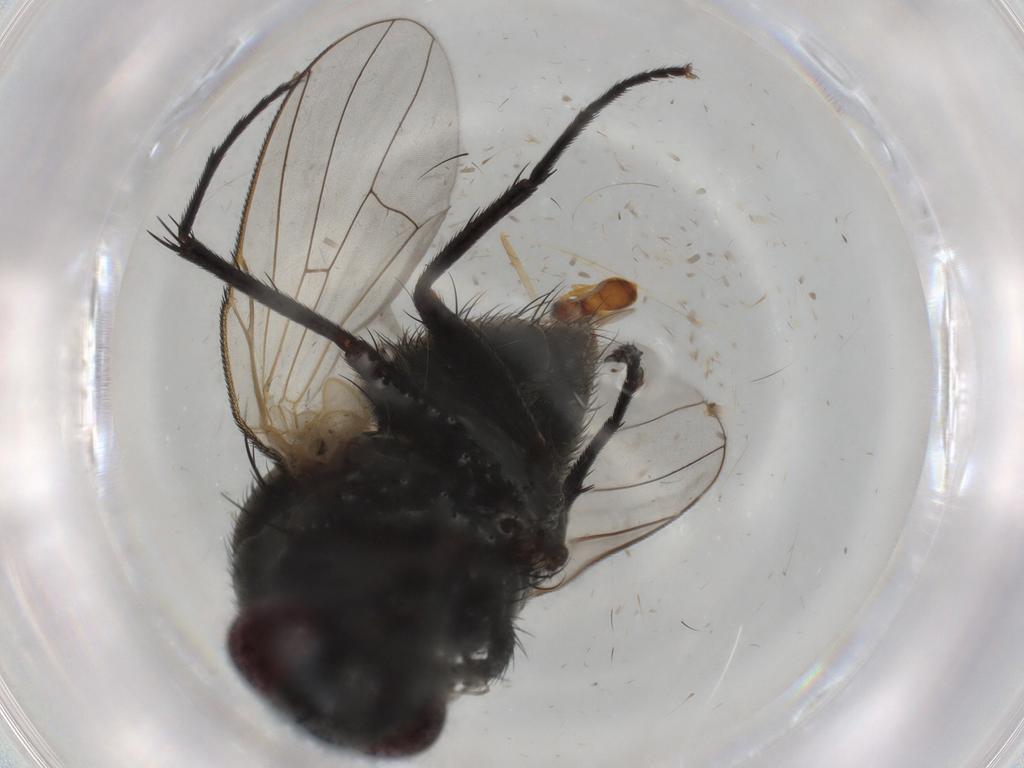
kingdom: Animalia
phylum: Arthropoda
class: Insecta
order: Diptera
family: Muscidae
